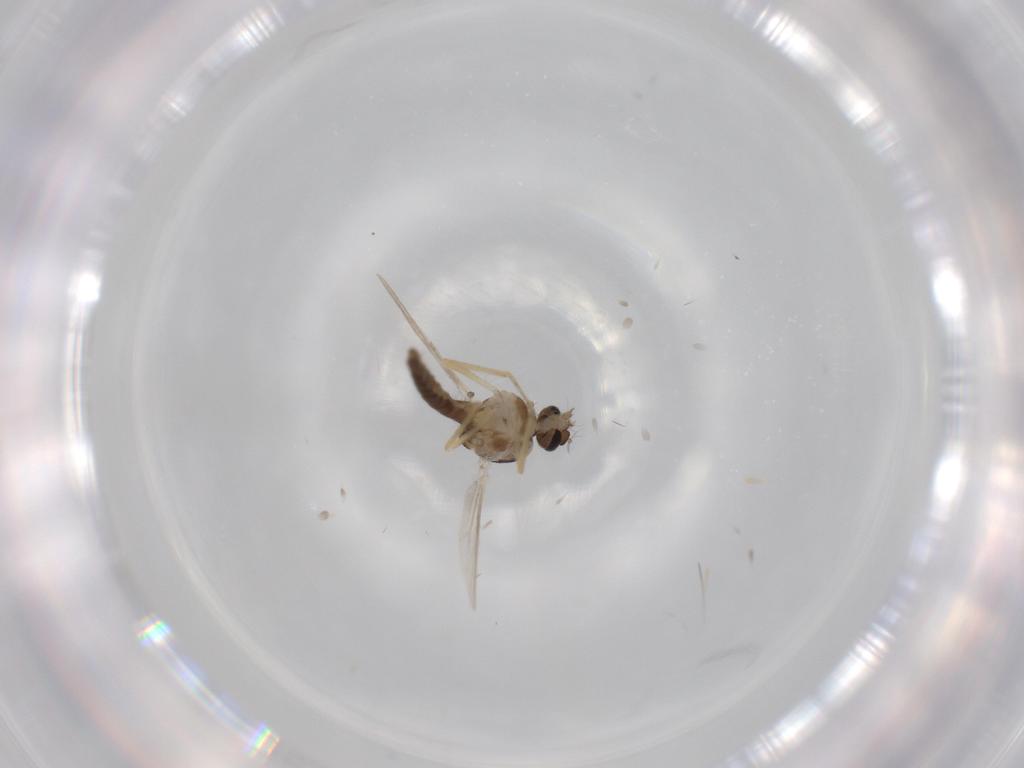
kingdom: Animalia
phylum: Arthropoda
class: Insecta
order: Diptera
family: Ceratopogonidae
